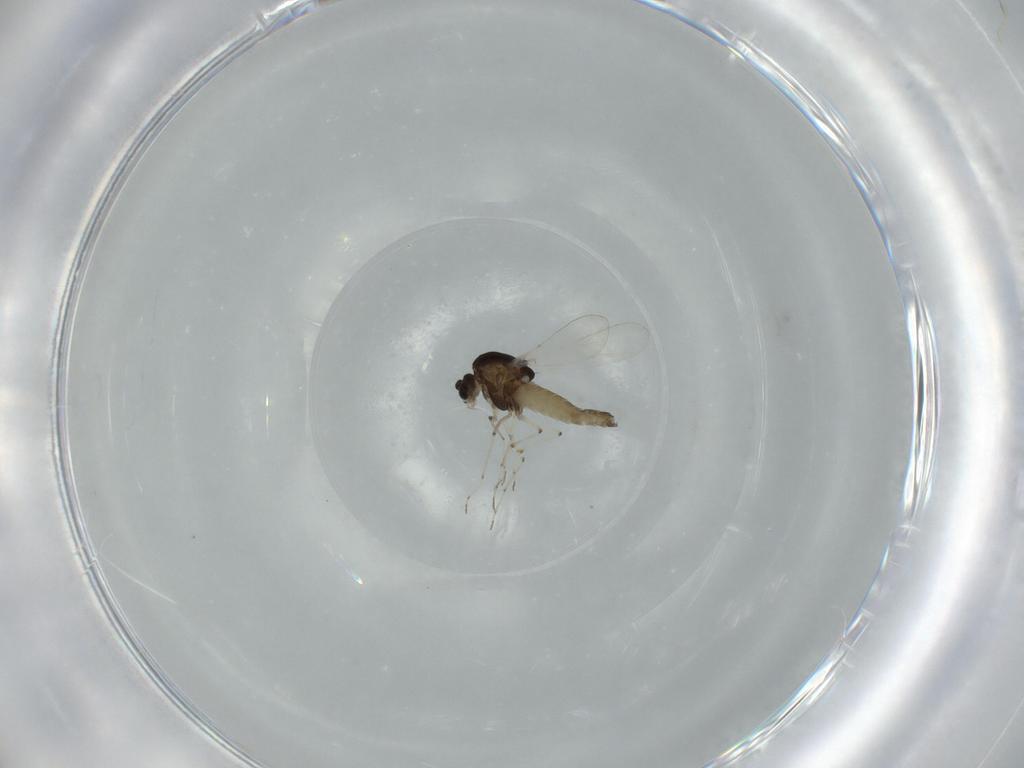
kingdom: Animalia
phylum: Arthropoda
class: Insecta
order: Diptera
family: Chironomidae
